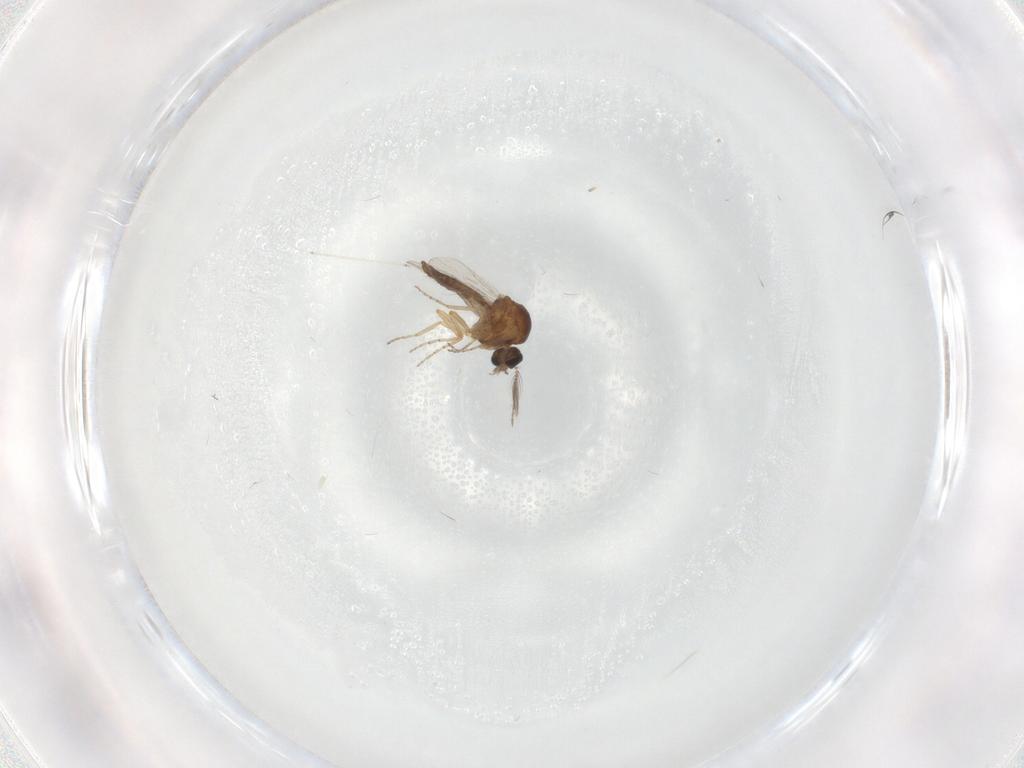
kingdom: Animalia
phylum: Arthropoda
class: Insecta
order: Diptera
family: Ceratopogonidae
